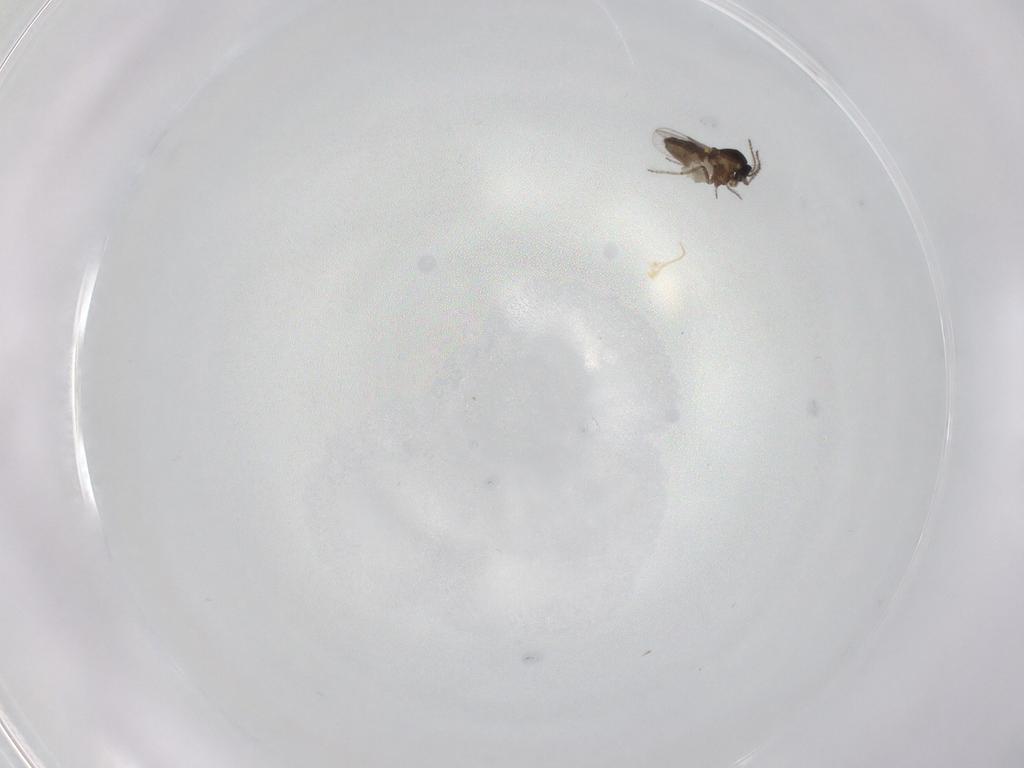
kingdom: Animalia
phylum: Arthropoda
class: Insecta
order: Diptera
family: Ceratopogonidae
